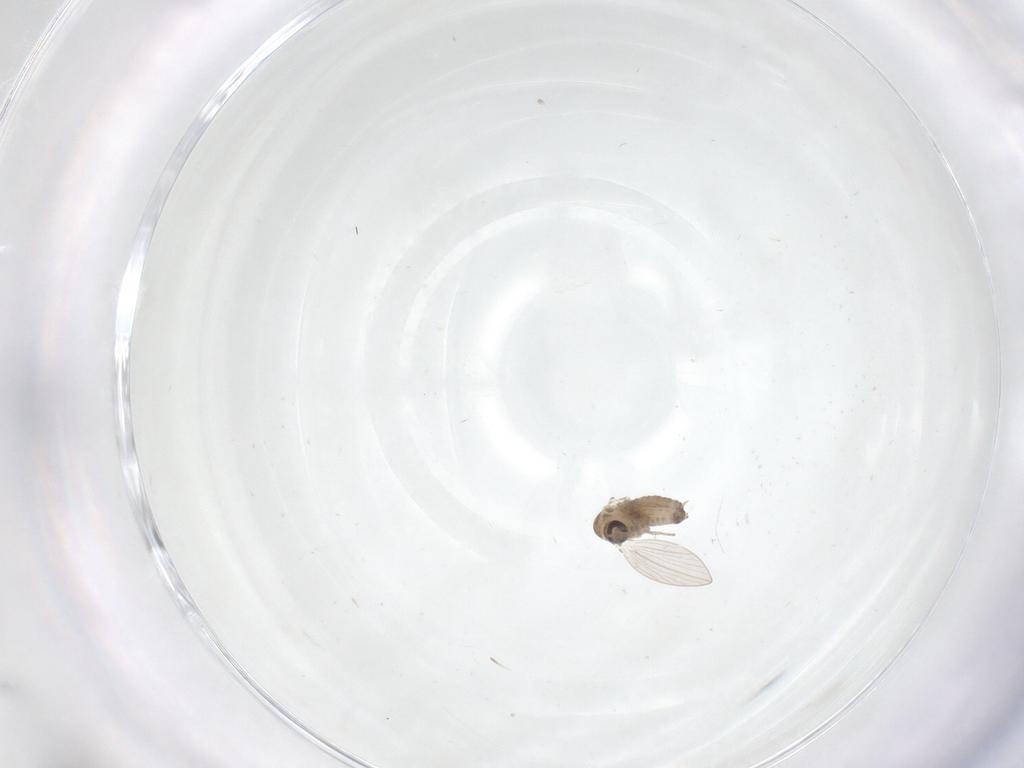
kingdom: Animalia
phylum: Arthropoda
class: Insecta
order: Diptera
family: Psychodidae
